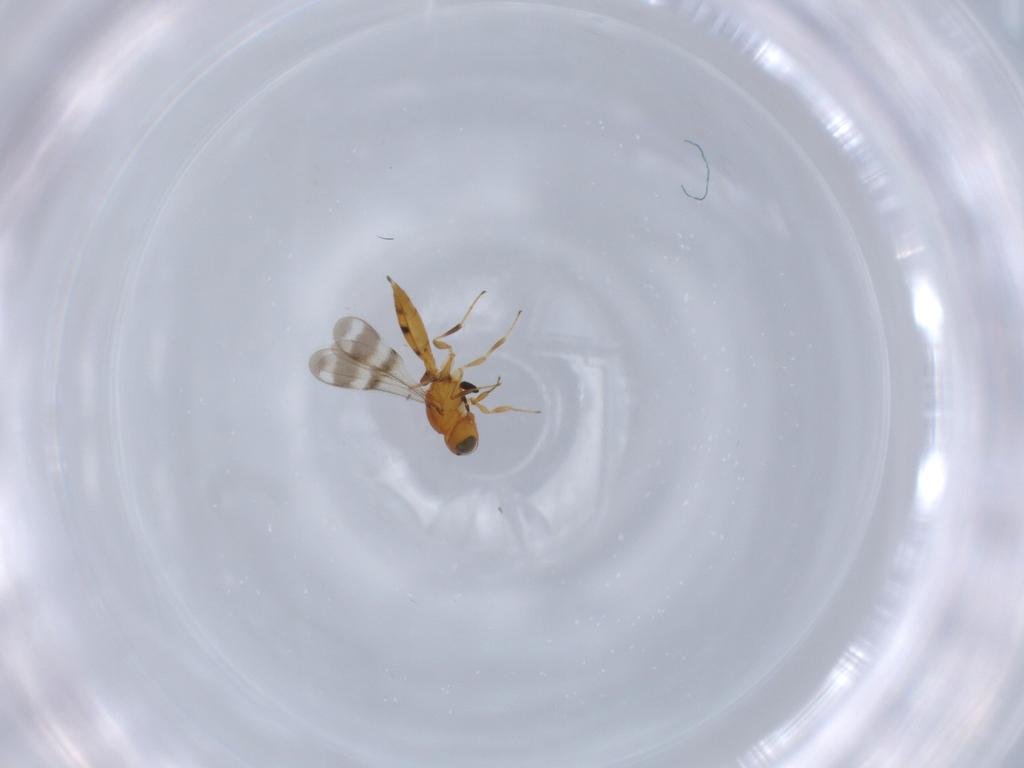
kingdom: Animalia
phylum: Arthropoda
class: Insecta
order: Hymenoptera
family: Scelionidae
